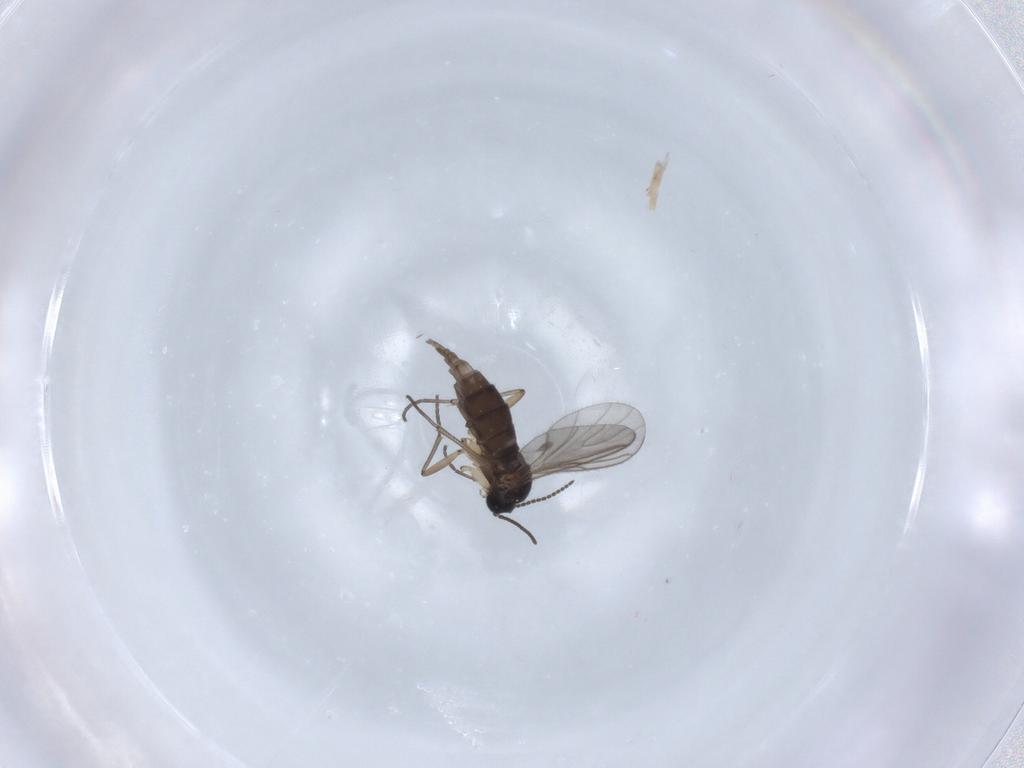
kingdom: Animalia
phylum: Arthropoda
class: Insecta
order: Diptera
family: Sciaridae
